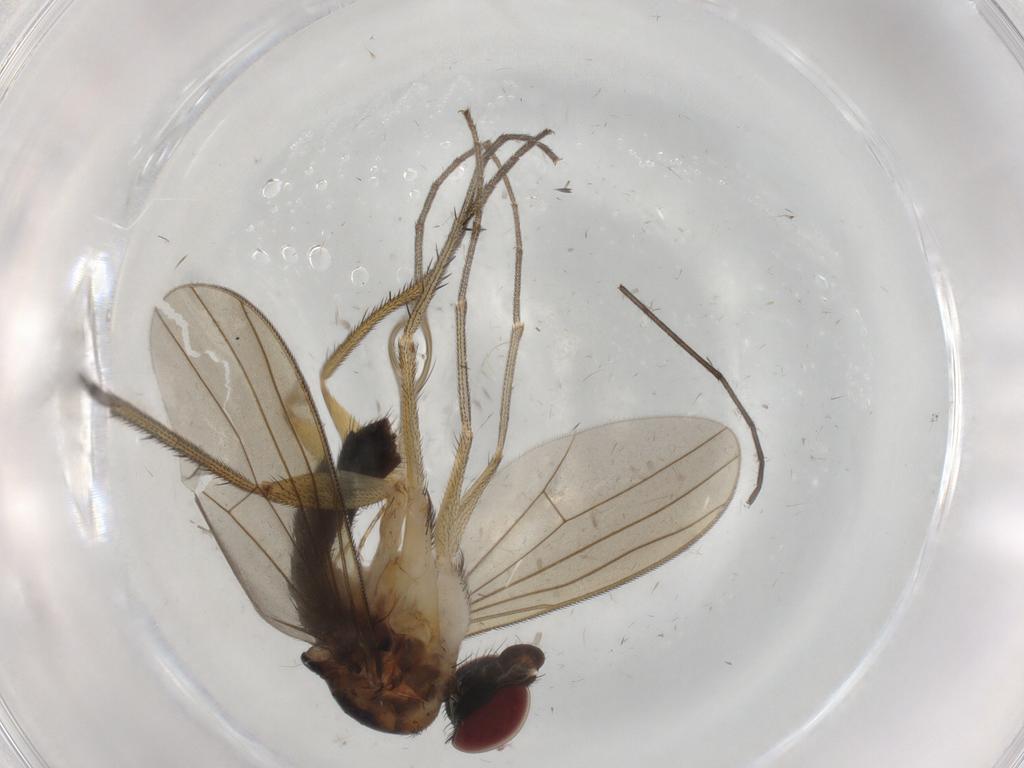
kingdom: Animalia
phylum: Arthropoda
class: Insecta
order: Diptera
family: Dolichopodidae
